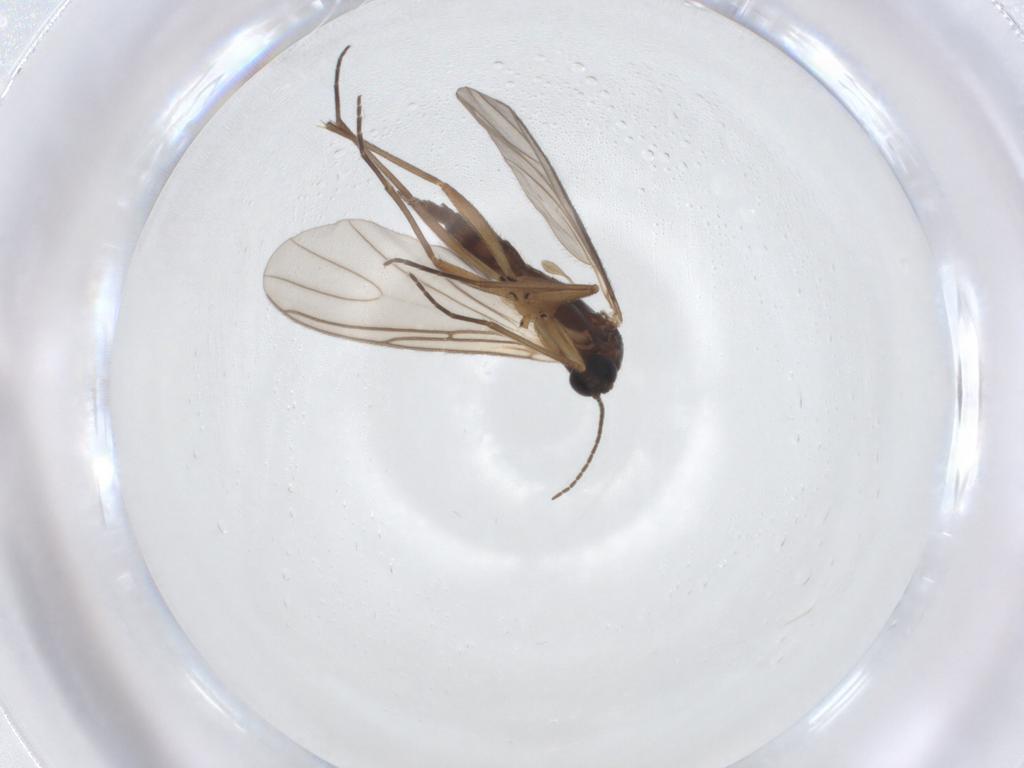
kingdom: Animalia
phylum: Arthropoda
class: Insecta
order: Diptera
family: Sciaridae
